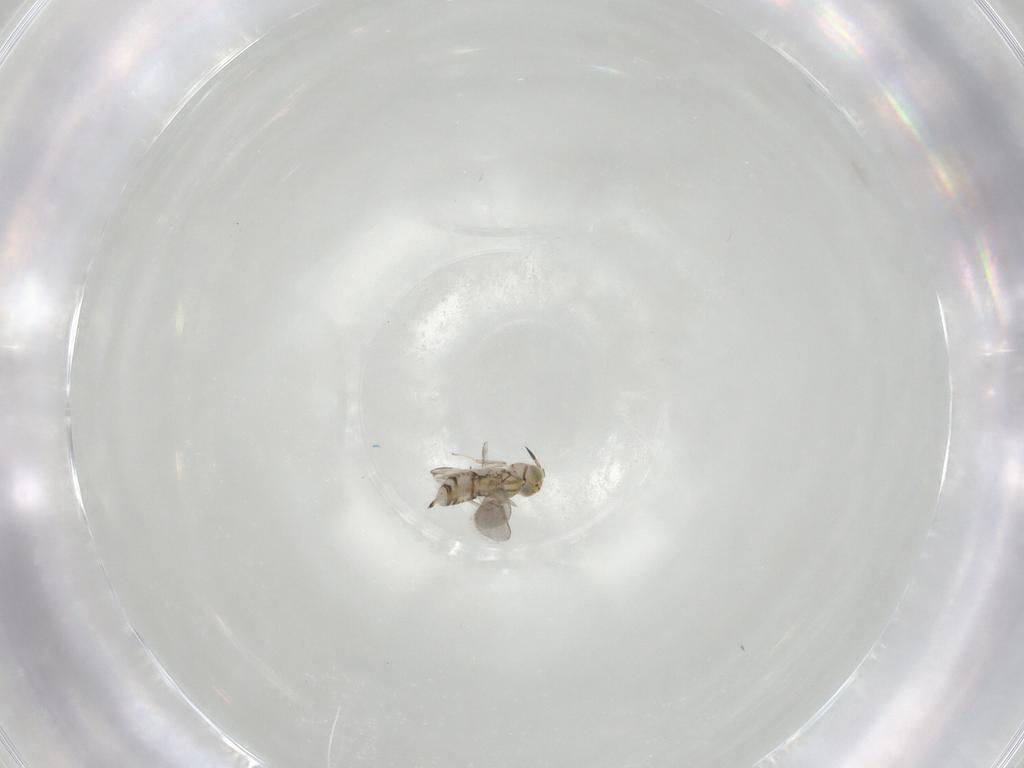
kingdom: Animalia
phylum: Arthropoda
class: Insecta
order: Hymenoptera
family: Aphelinidae
